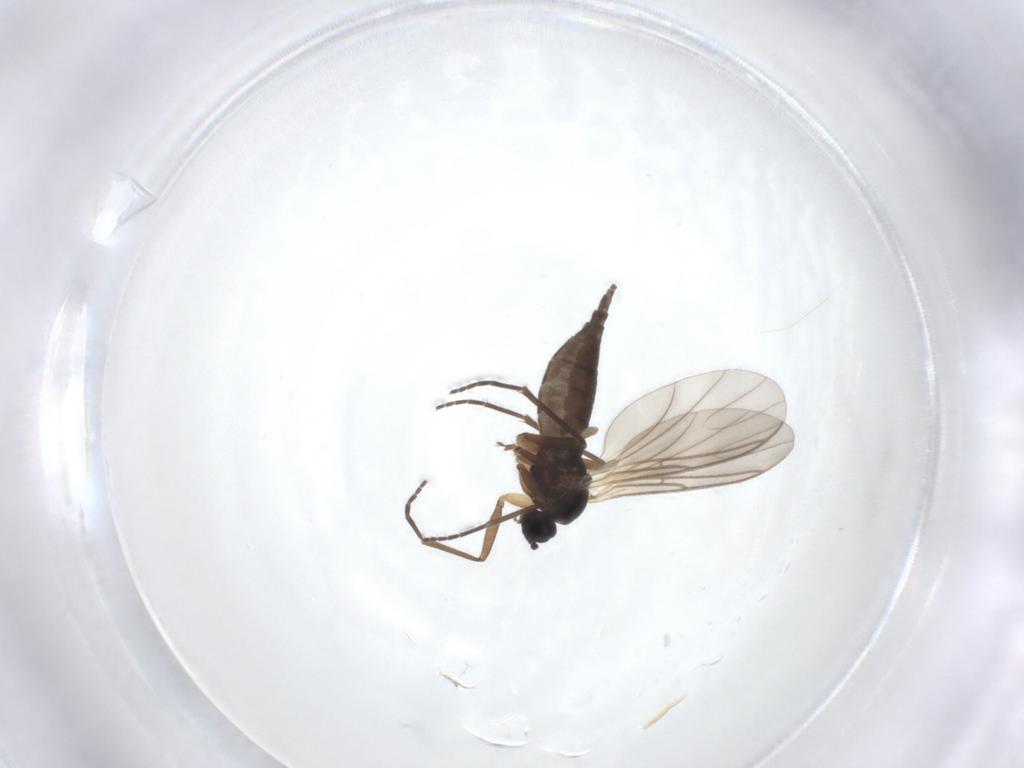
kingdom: Animalia
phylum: Arthropoda
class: Insecta
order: Diptera
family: Sciaridae
